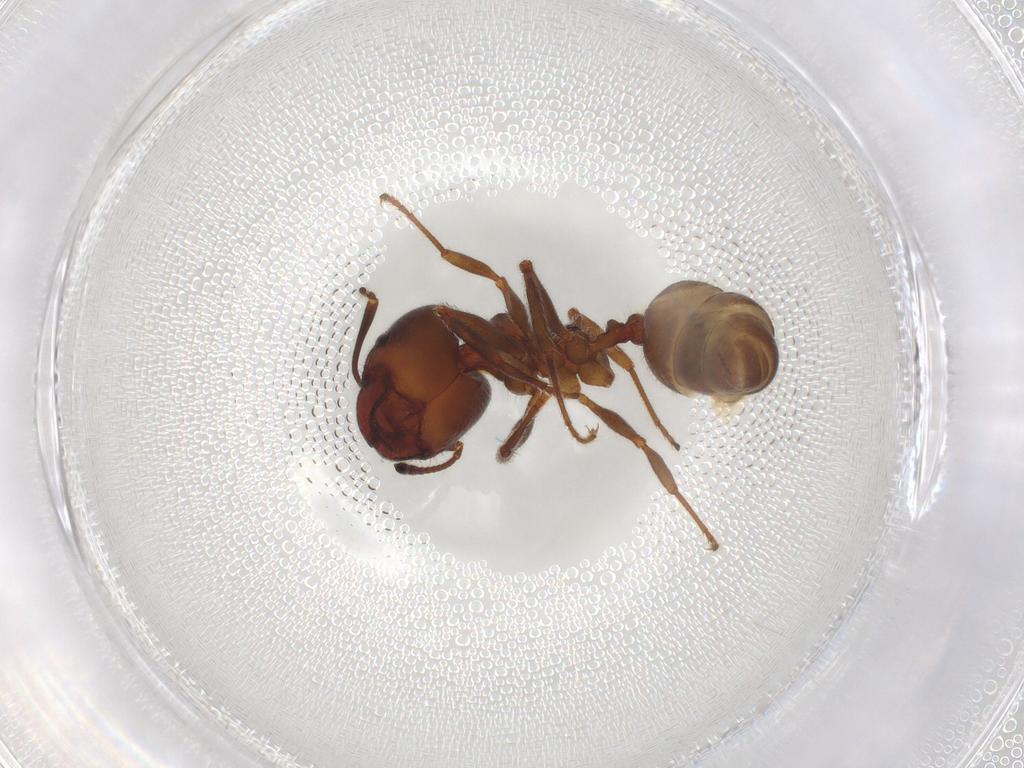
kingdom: Animalia
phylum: Arthropoda
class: Insecta
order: Hymenoptera
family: Formicidae
